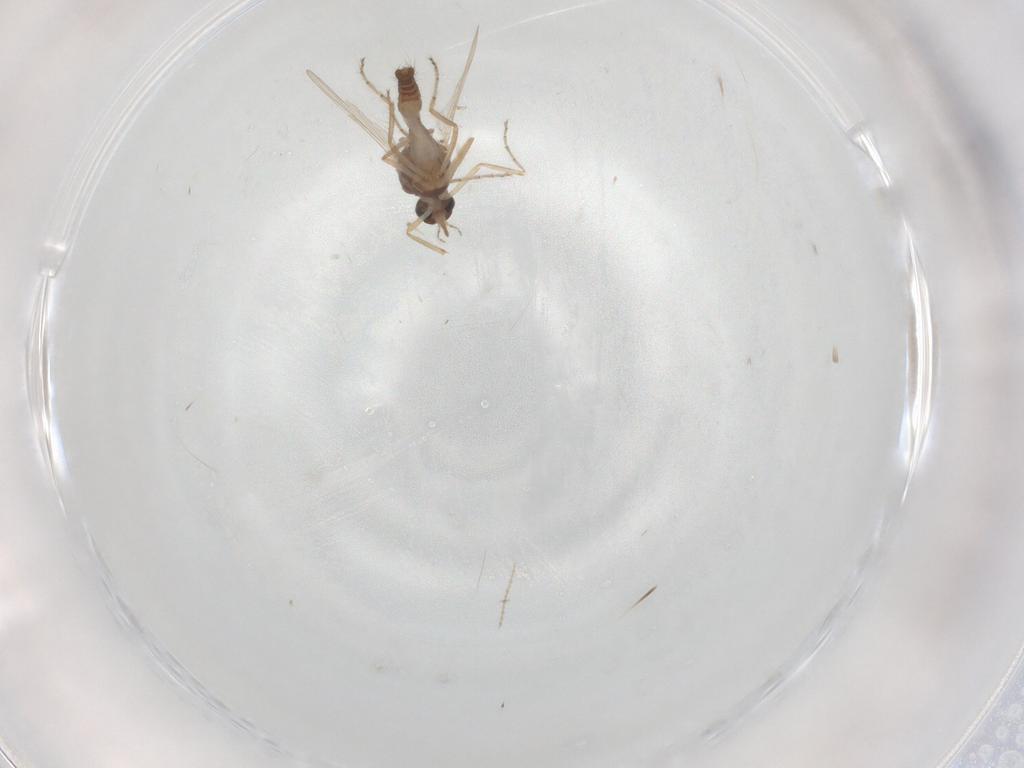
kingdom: Animalia
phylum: Arthropoda
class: Insecta
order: Diptera
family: Ceratopogonidae
